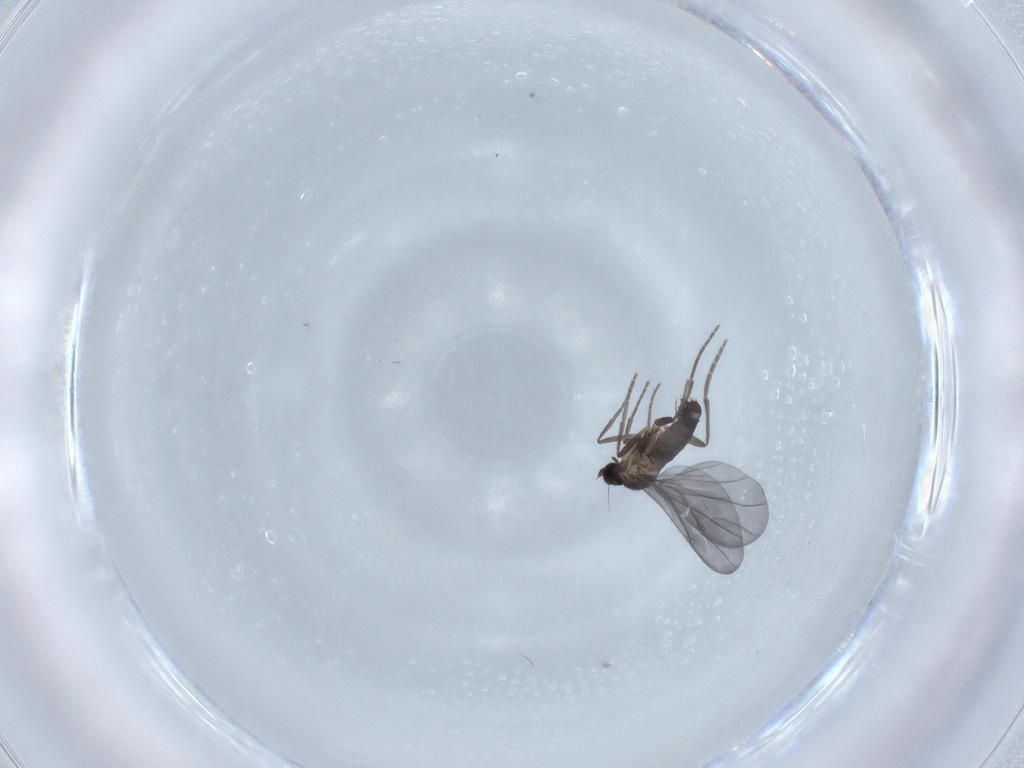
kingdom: Animalia
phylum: Arthropoda
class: Insecta
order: Diptera
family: Phoridae
